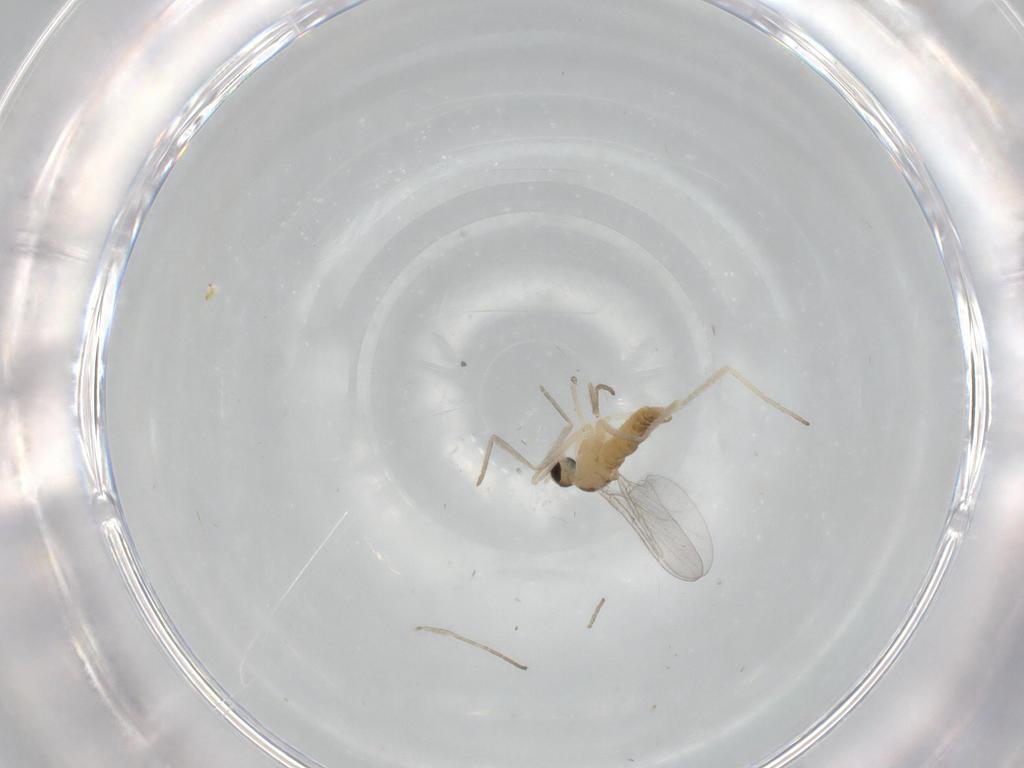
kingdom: Animalia
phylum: Arthropoda
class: Insecta
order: Diptera
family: Cecidomyiidae
